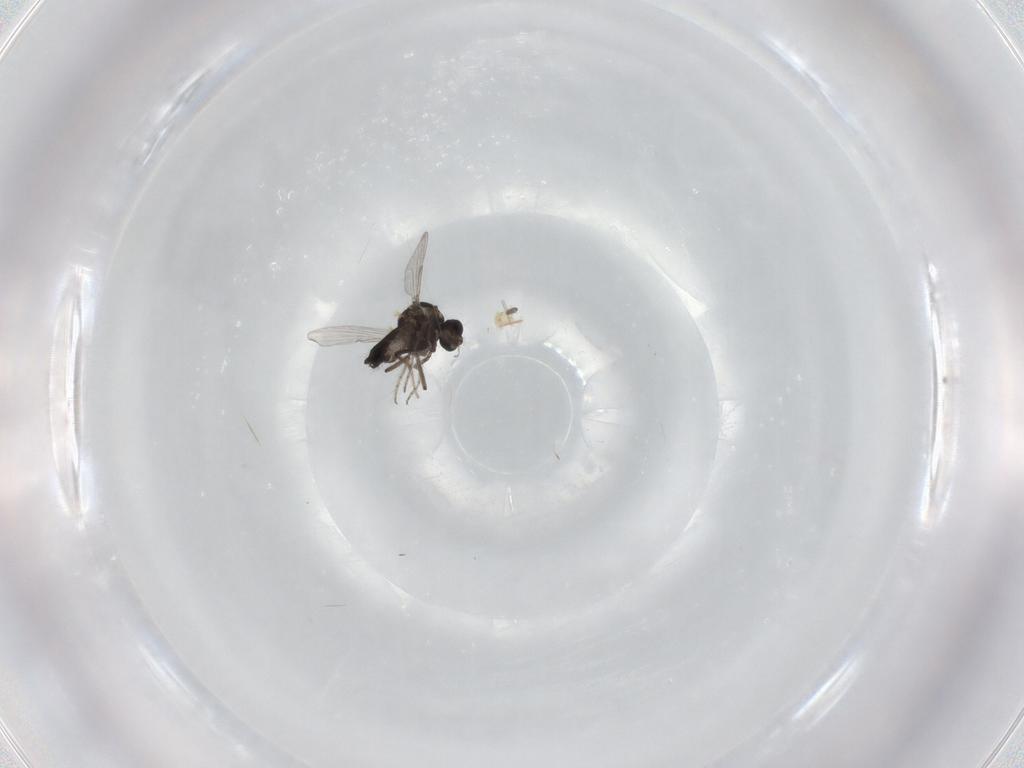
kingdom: Animalia
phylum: Arthropoda
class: Insecta
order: Diptera
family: Ceratopogonidae
